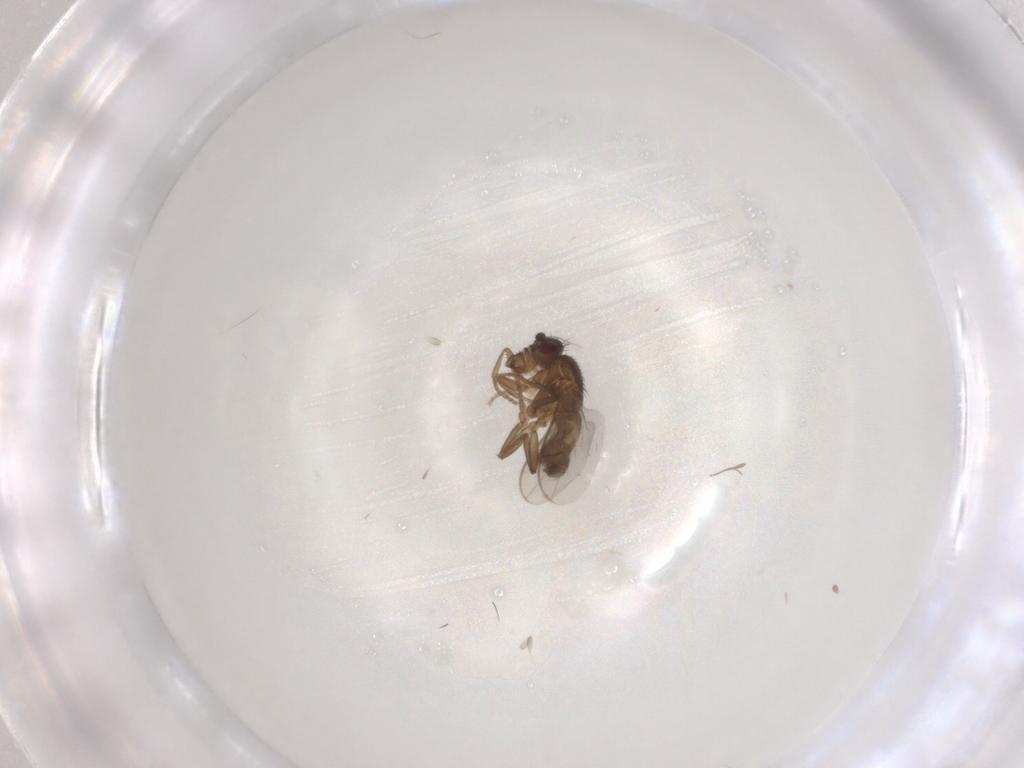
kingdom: Animalia
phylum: Arthropoda
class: Insecta
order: Diptera
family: Sphaeroceridae
